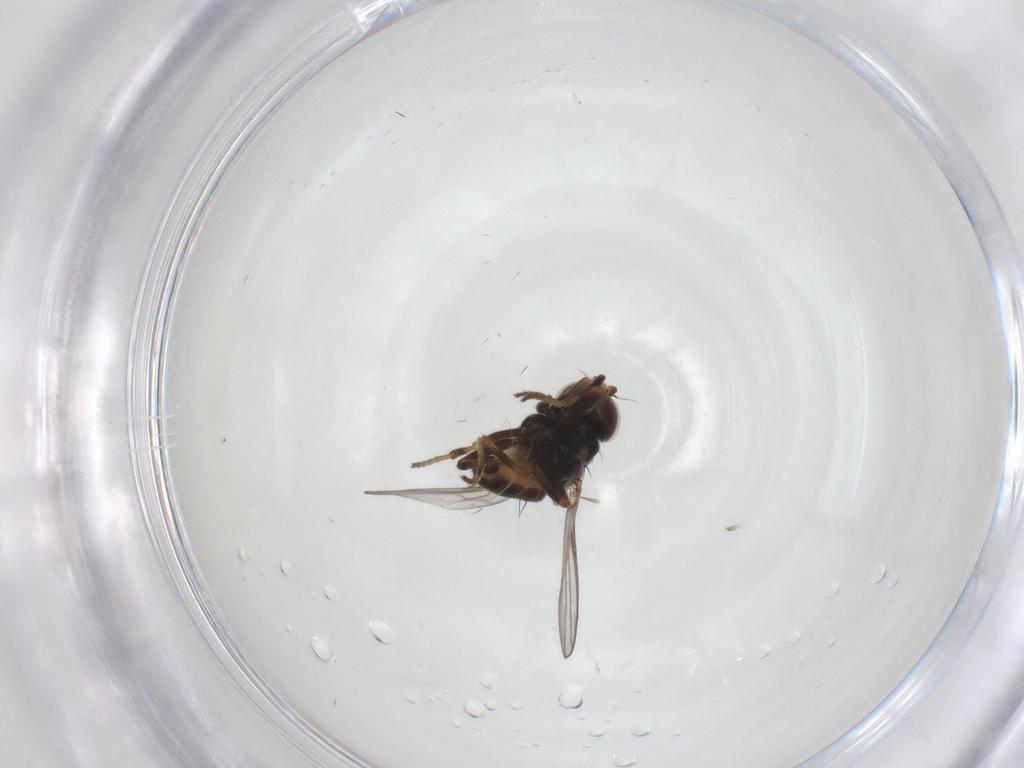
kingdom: Animalia
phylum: Arthropoda
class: Insecta
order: Diptera
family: Chloropidae
